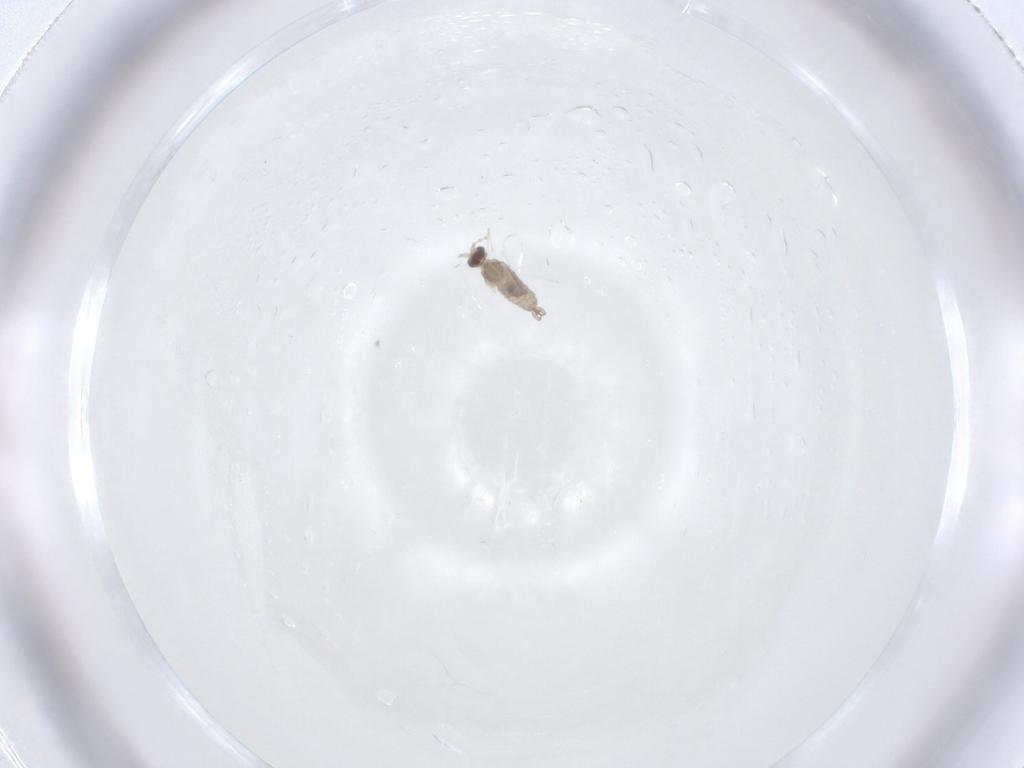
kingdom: Animalia
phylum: Arthropoda
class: Insecta
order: Diptera
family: Cecidomyiidae
